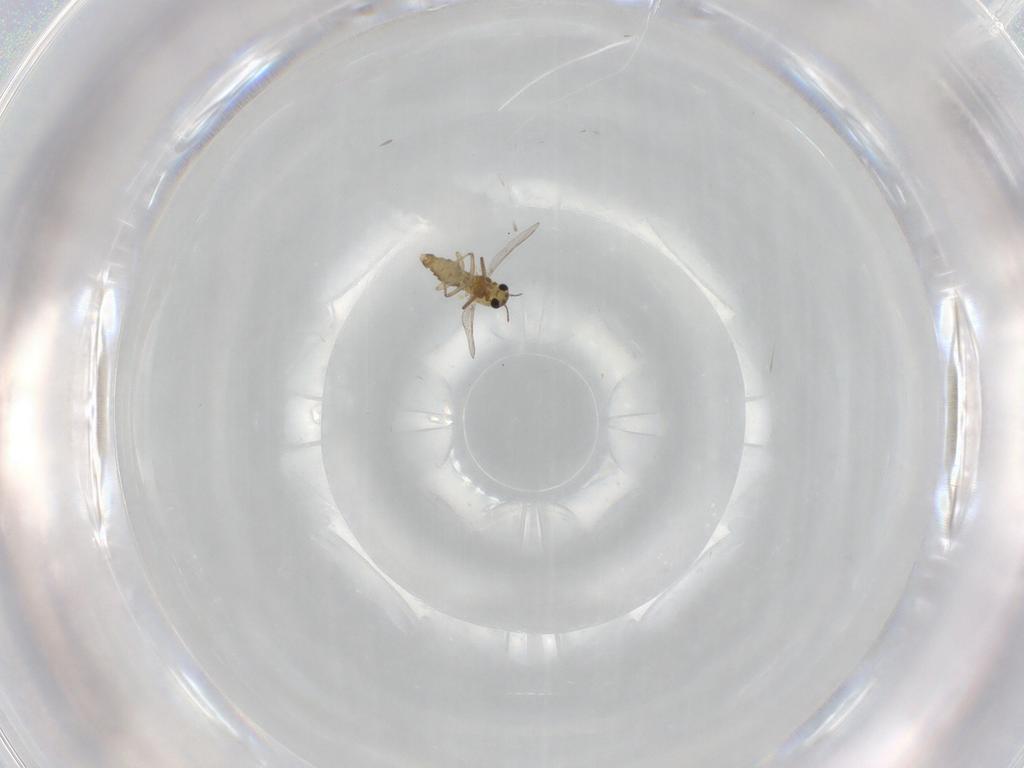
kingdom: Animalia
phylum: Arthropoda
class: Insecta
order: Diptera
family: Chironomidae
